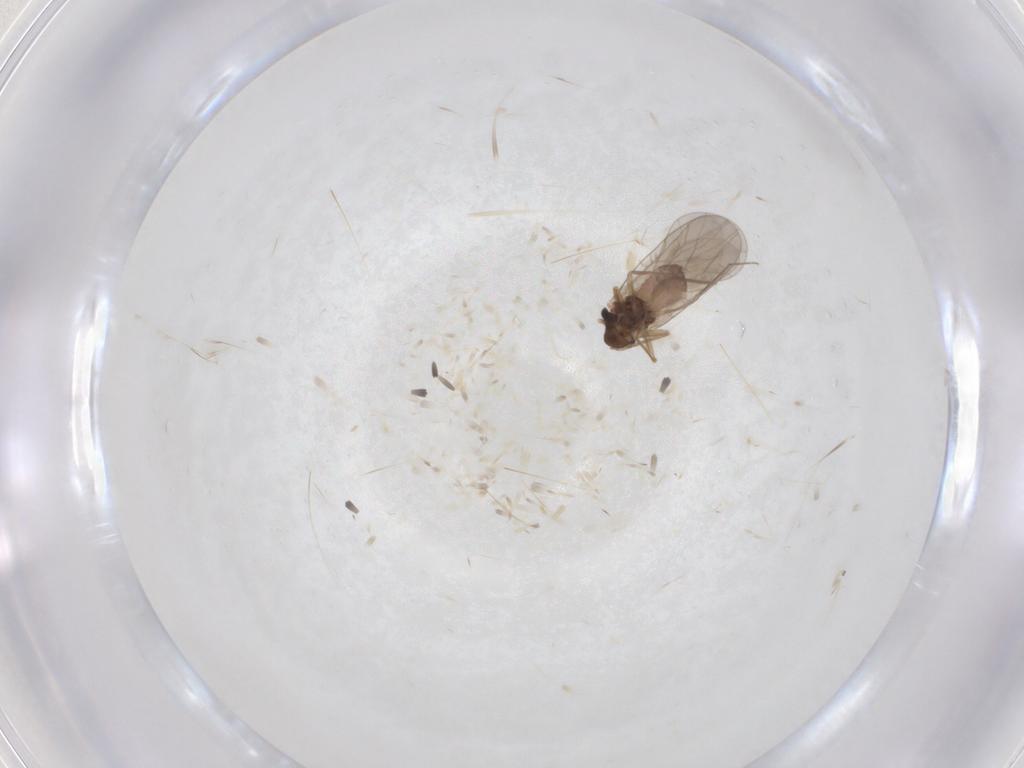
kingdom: Animalia
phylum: Arthropoda
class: Insecta
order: Psocodea
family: Lepidopsocidae
